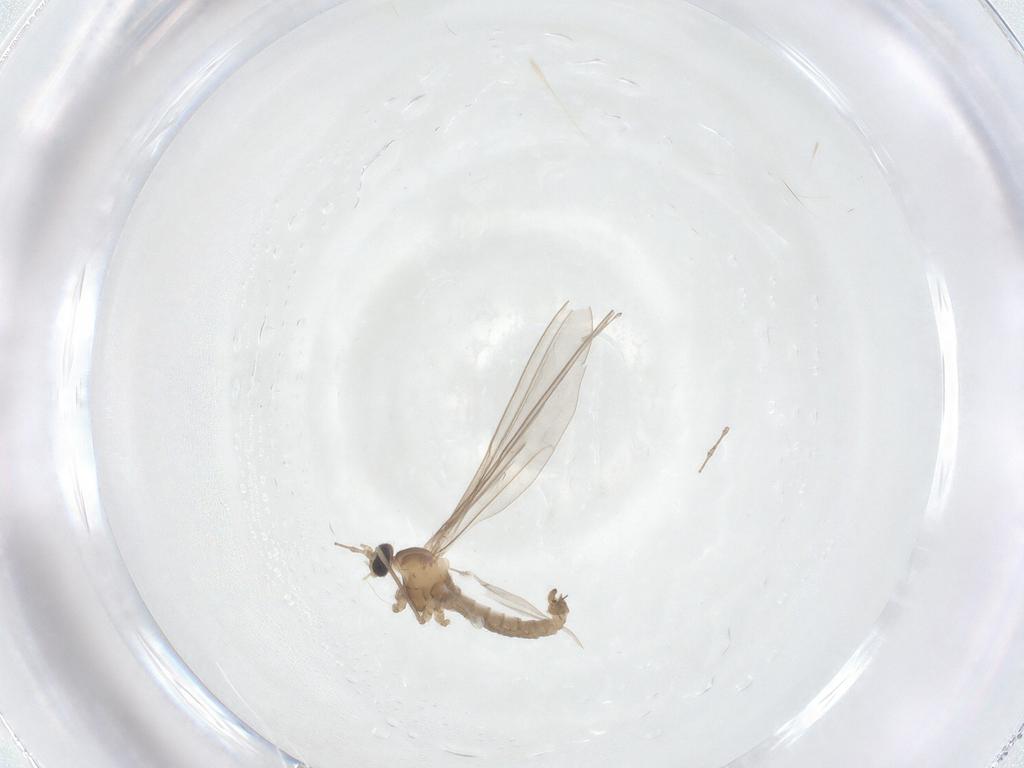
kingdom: Animalia
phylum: Arthropoda
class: Insecta
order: Diptera
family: Cecidomyiidae
